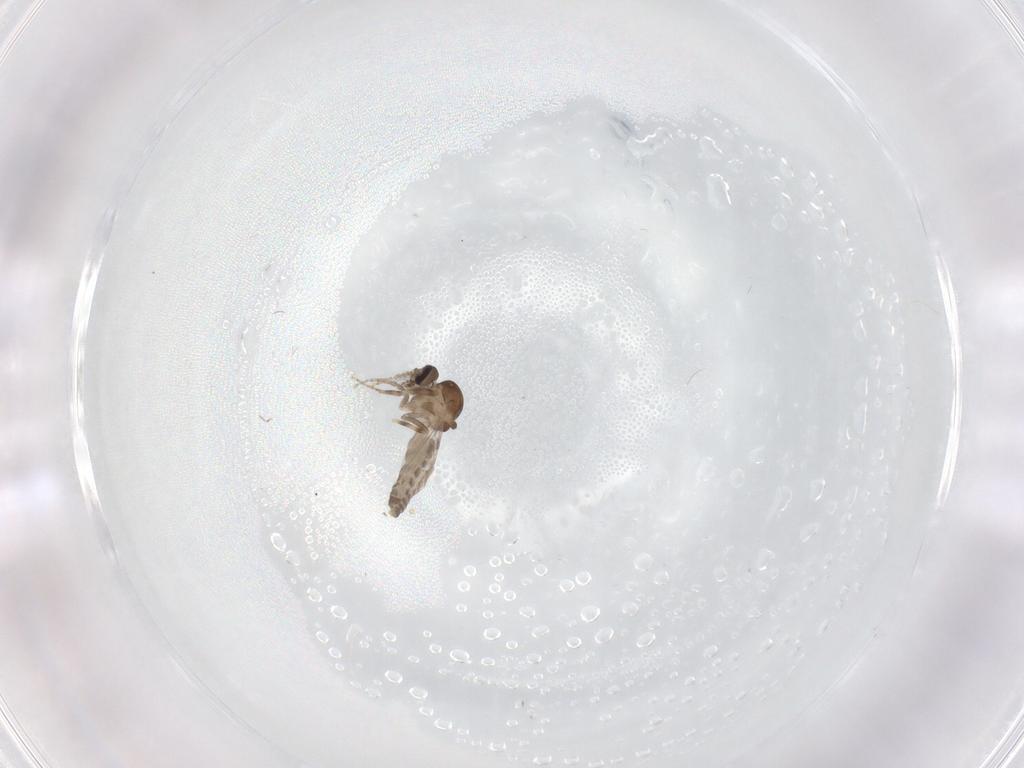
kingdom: Animalia
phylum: Arthropoda
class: Insecta
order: Diptera
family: Ceratopogonidae
